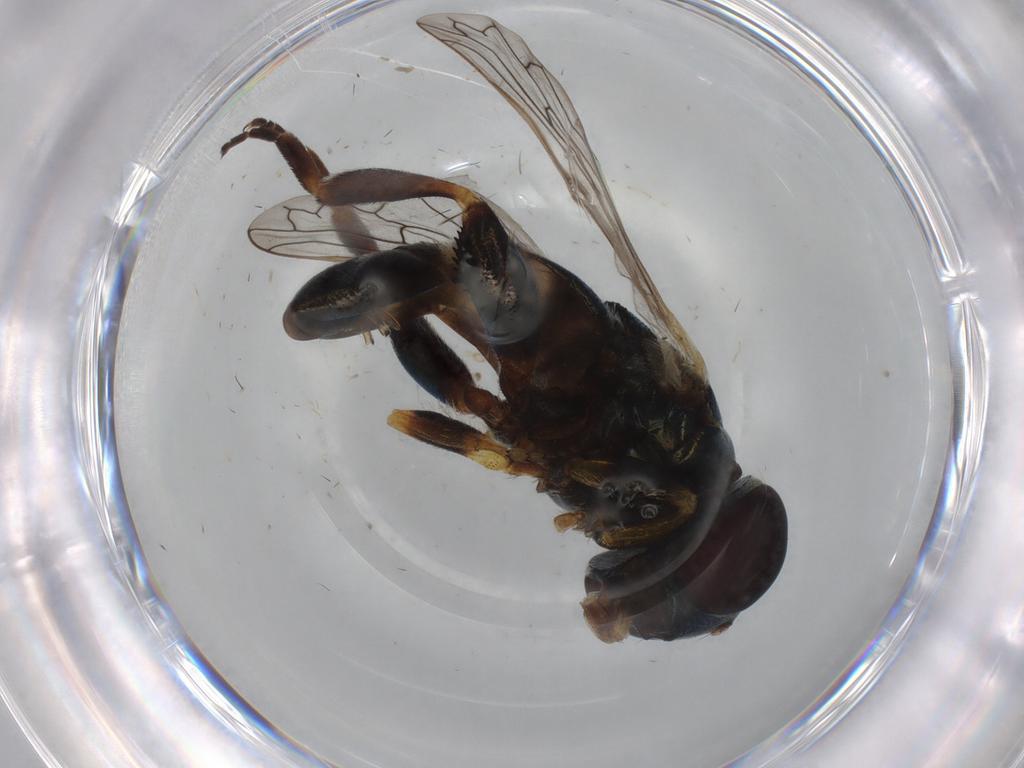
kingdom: Animalia
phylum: Arthropoda
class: Insecta
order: Diptera
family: Syrphidae
